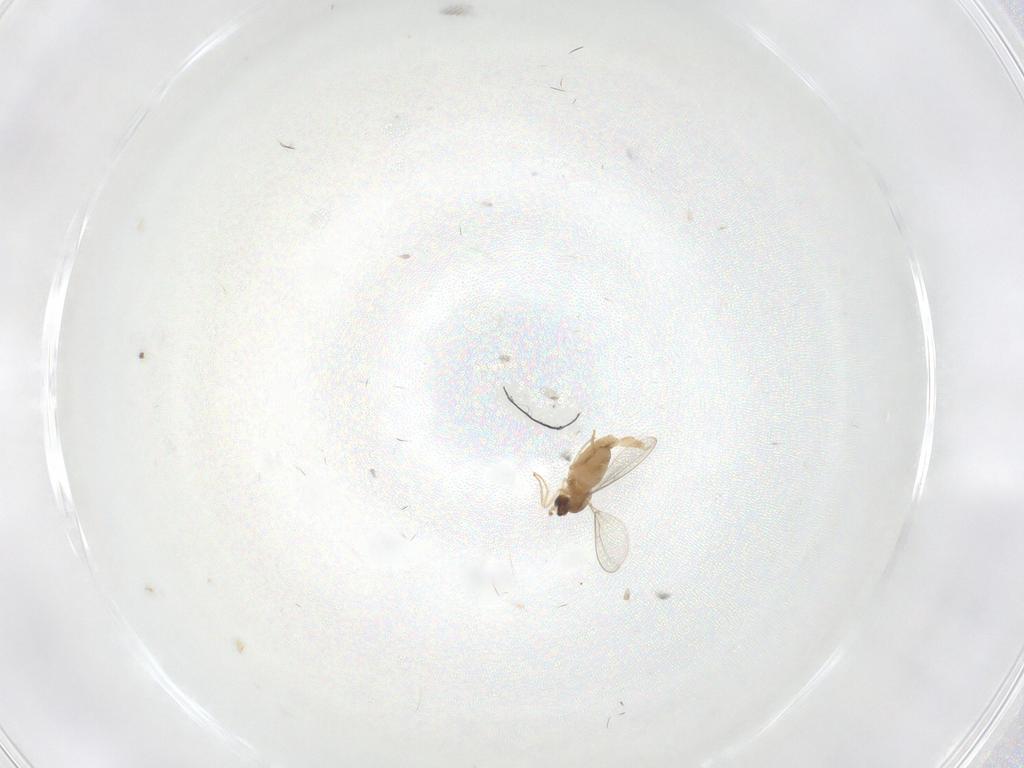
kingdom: Animalia
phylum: Arthropoda
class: Insecta
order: Diptera
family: Cecidomyiidae
